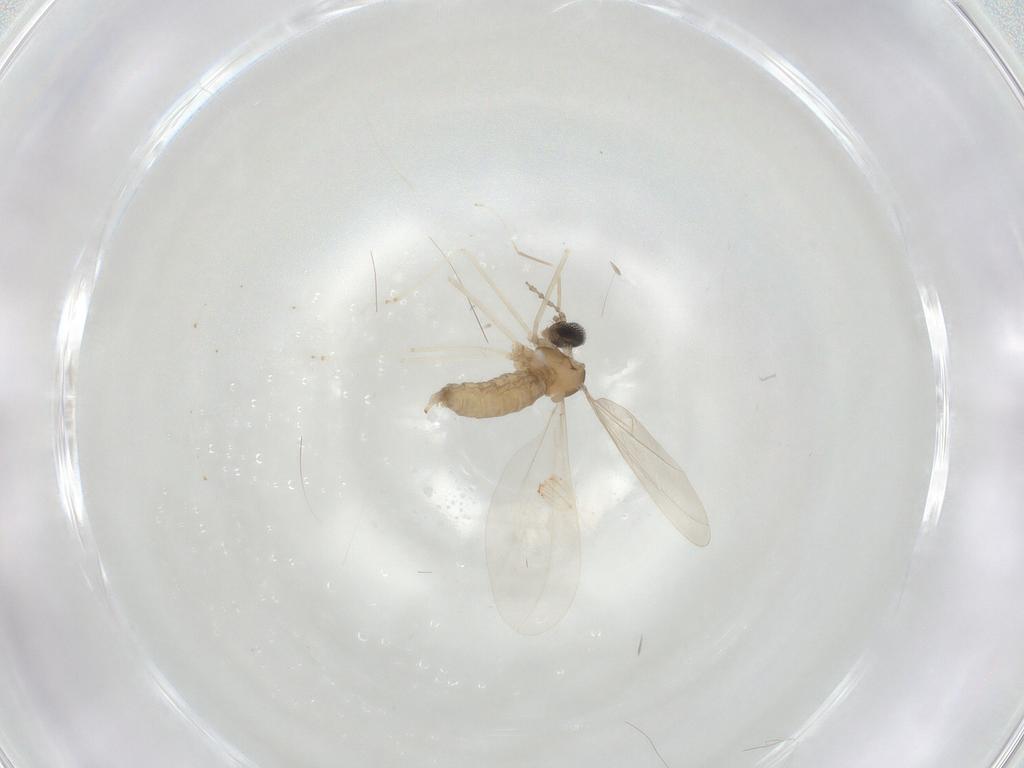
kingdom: Animalia
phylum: Arthropoda
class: Insecta
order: Diptera
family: Cecidomyiidae
